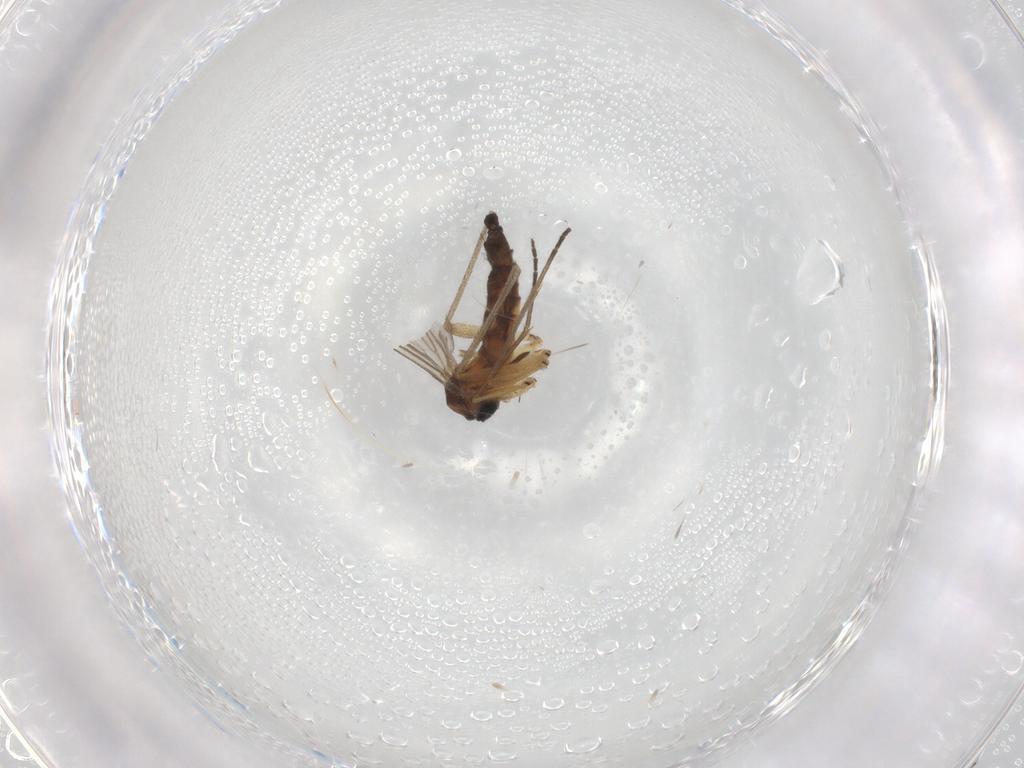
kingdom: Animalia
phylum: Arthropoda
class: Insecta
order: Diptera
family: Sciaridae
